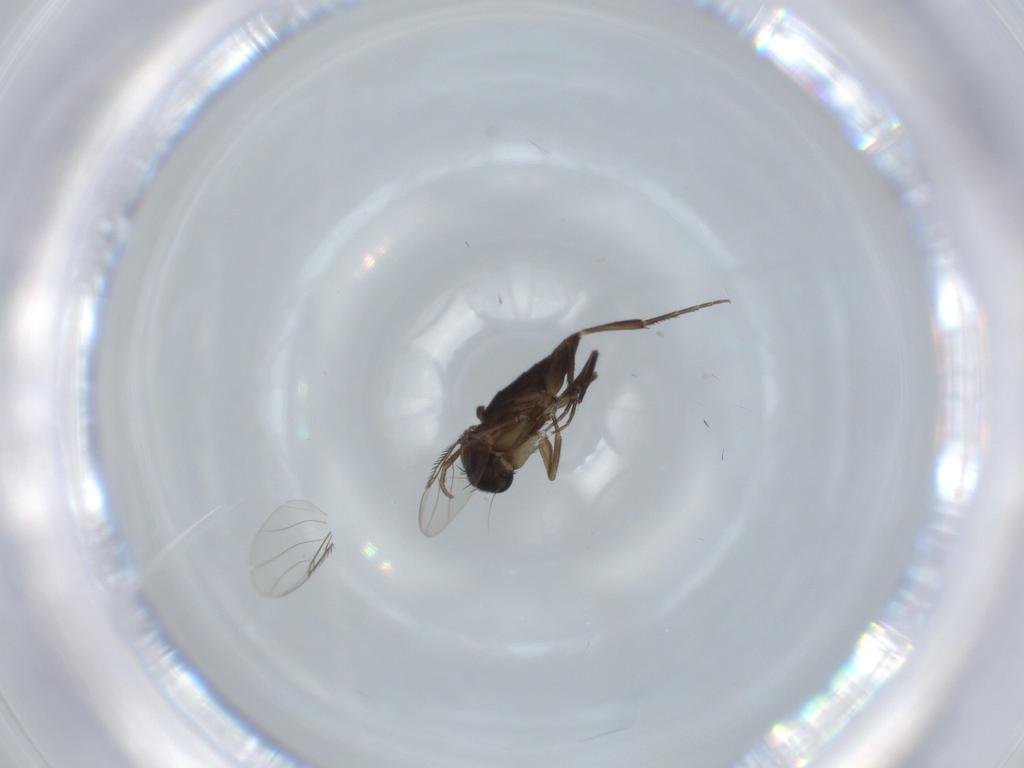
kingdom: Animalia
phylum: Arthropoda
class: Insecta
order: Diptera
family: Phoridae
